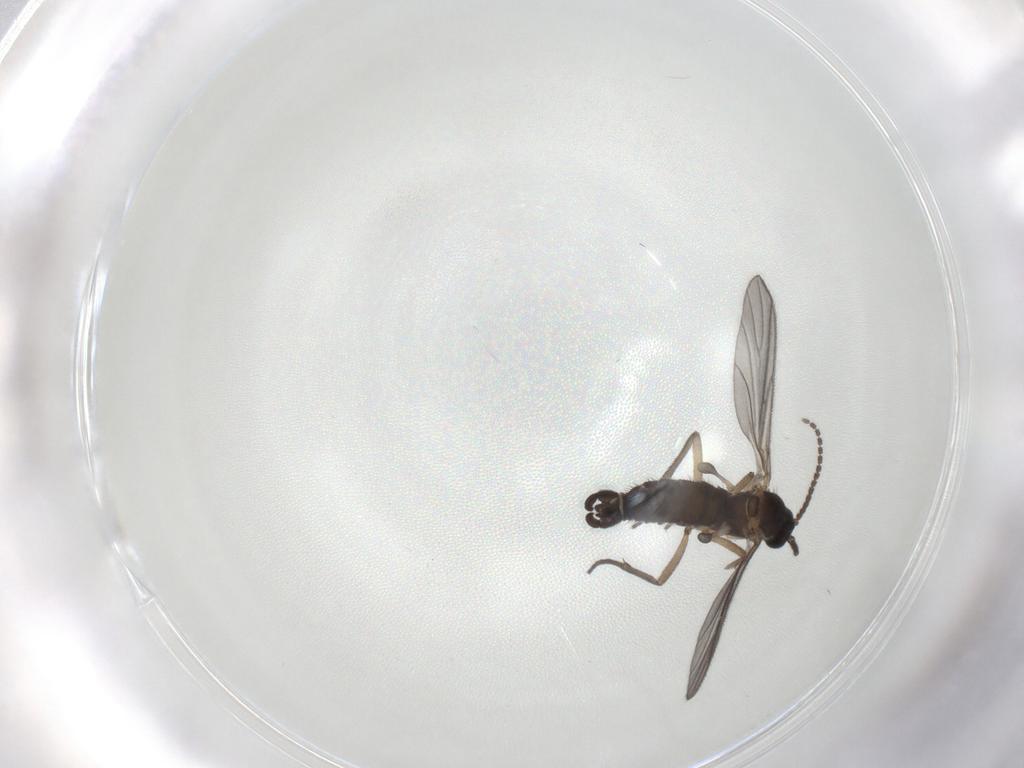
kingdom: Animalia
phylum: Arthropoda
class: Insecta
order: Diptera
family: Sciaridae
